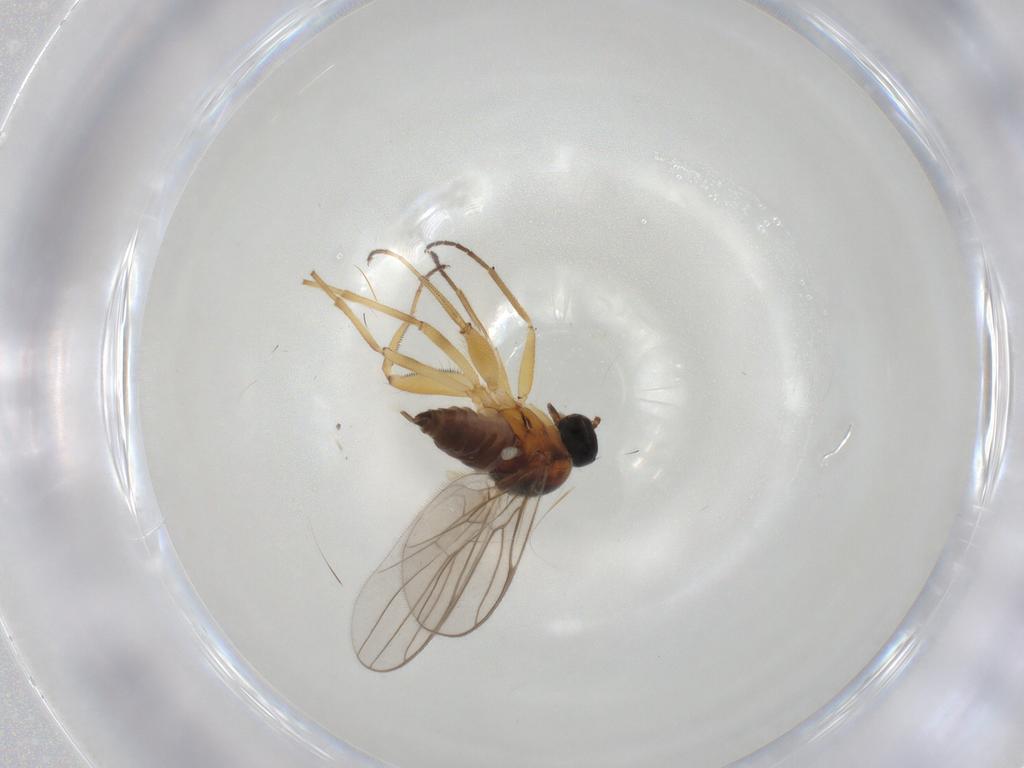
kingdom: Animalia
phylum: Arthropoda
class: Insecta
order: Diptera
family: Hybotidae
